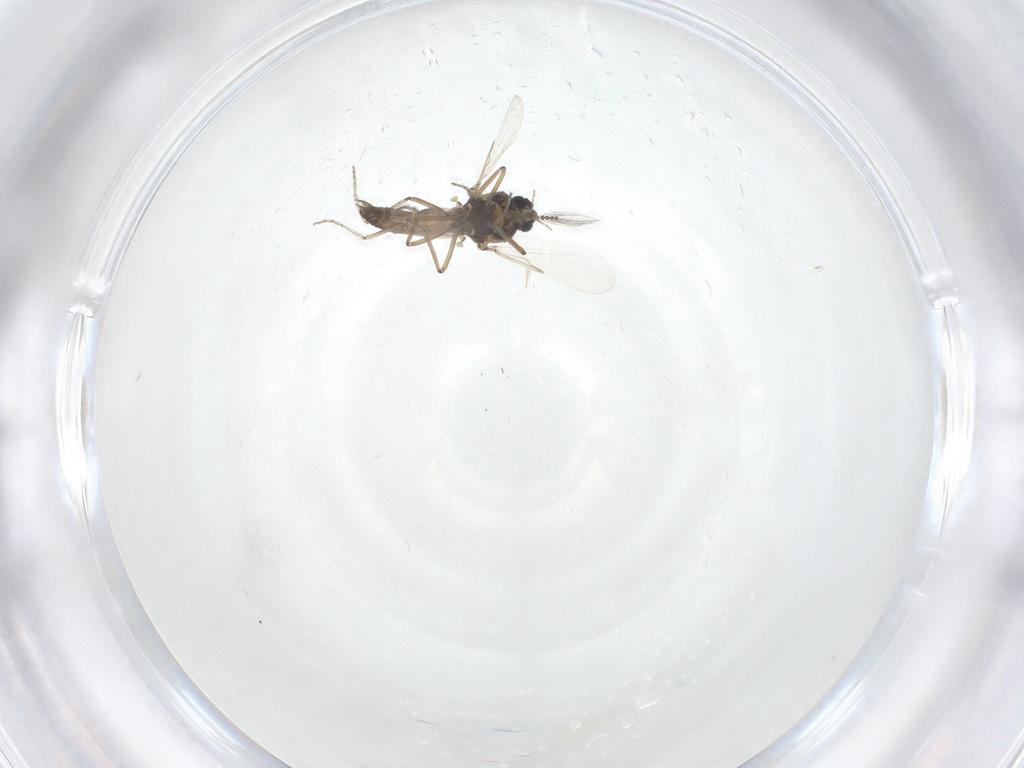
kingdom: Animalia
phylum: Arthropoda
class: Insecta
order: Diptera
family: Ceratopogonidae
